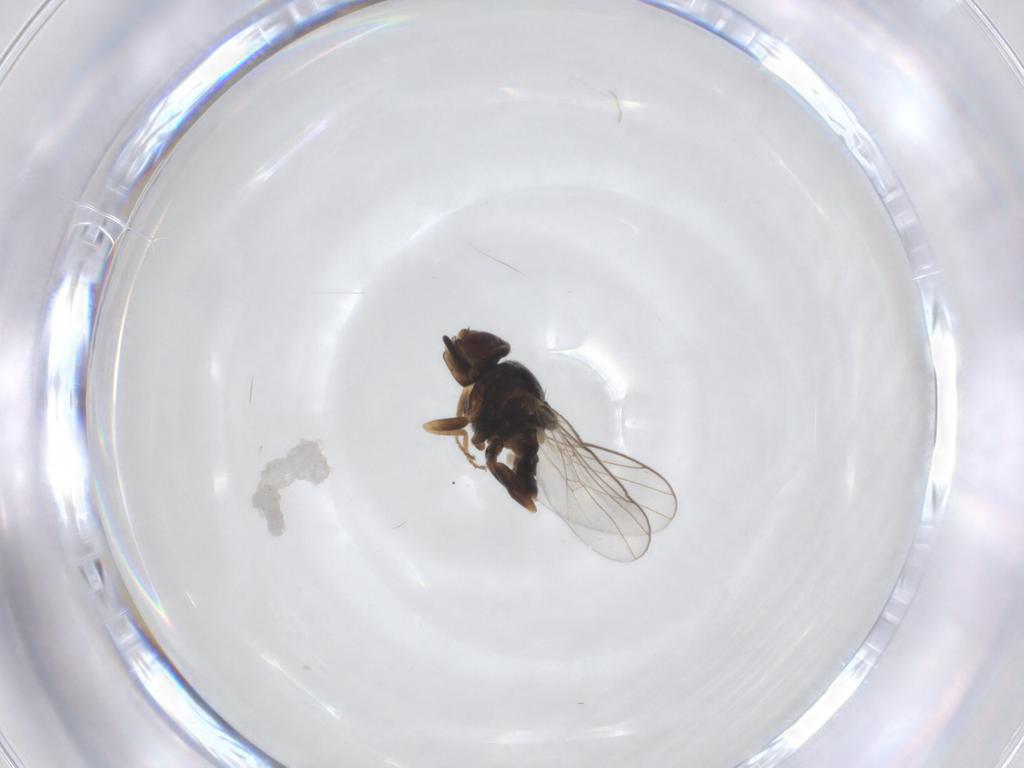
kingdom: Animalia
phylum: Arthropoda
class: Insecta
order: Diptera
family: Chloropidae
